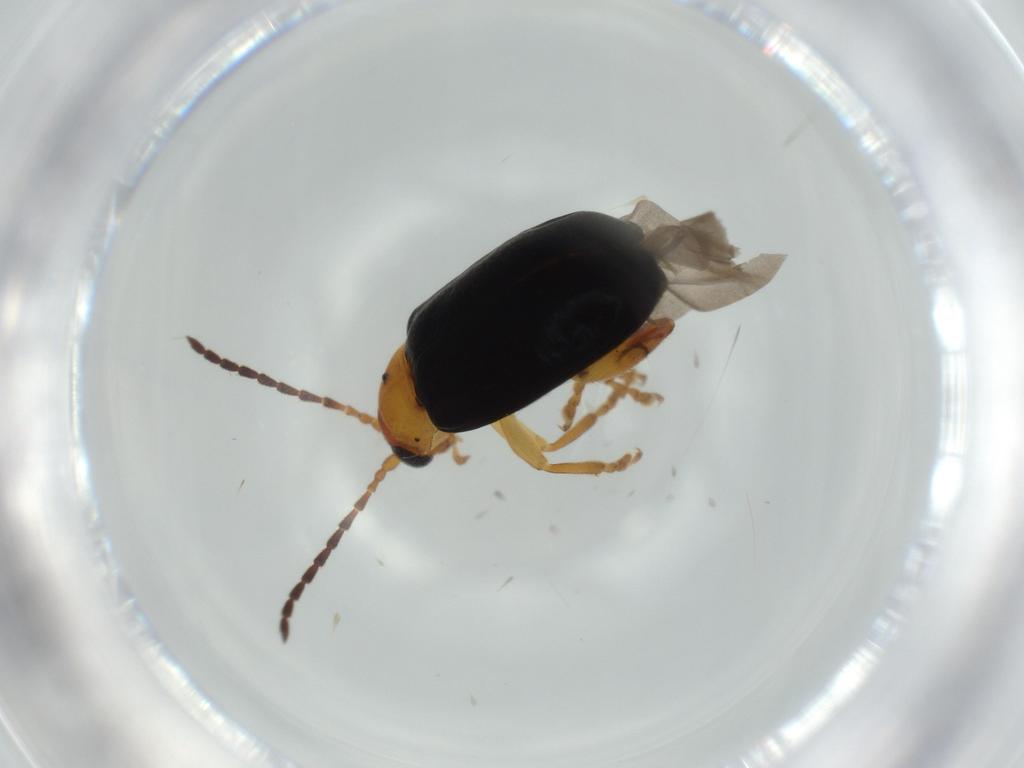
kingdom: Animalia
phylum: Arthropoda
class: Insecta
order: Coleoptera
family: Chrysomelidae
